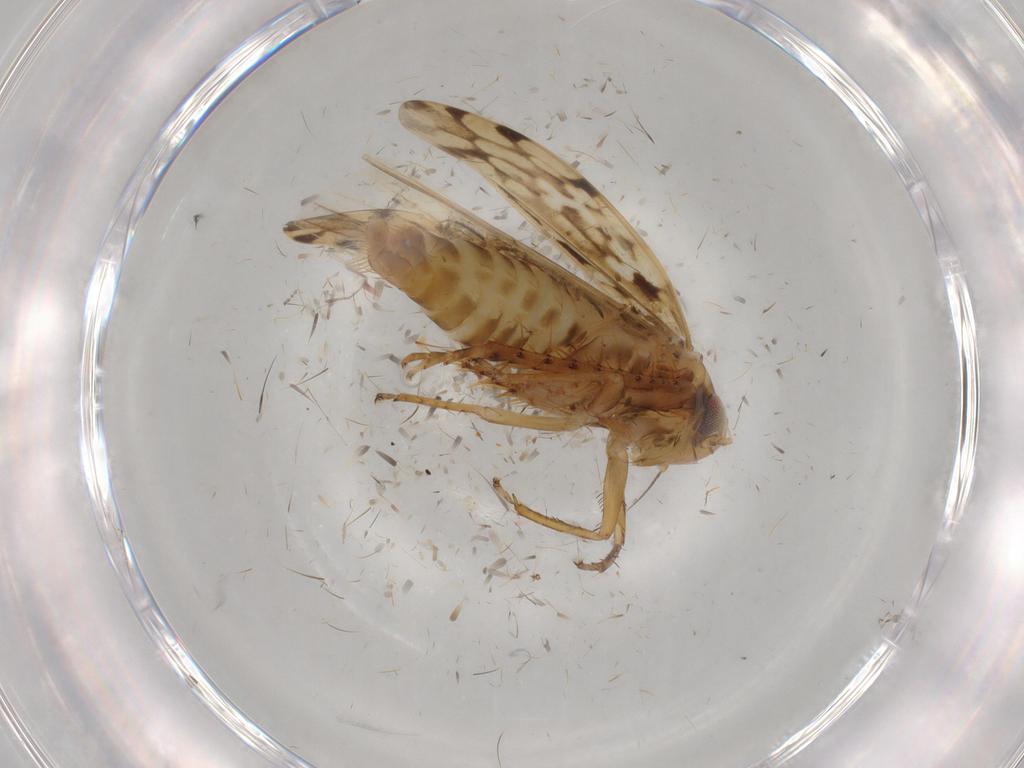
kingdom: Animalia
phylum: Arthropoda
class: Insecta
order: Hemiptera
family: Cicadellidae
